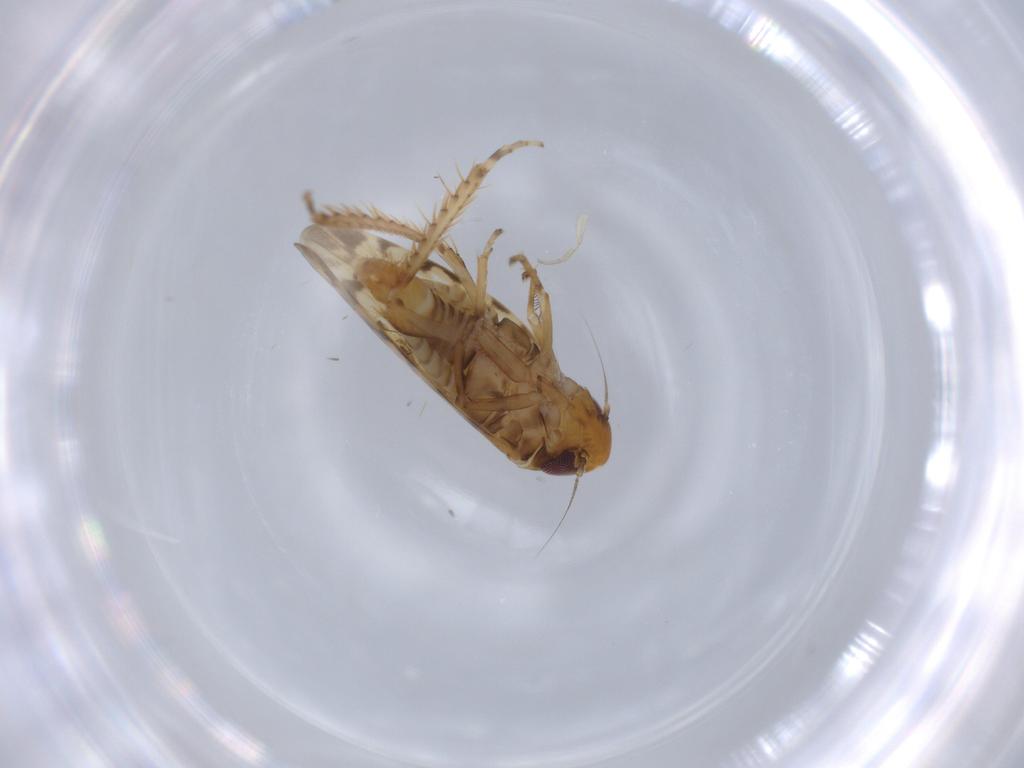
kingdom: Animalia
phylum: Arthropoda
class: Insecta
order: Hemiptera
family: Cicadellidae
